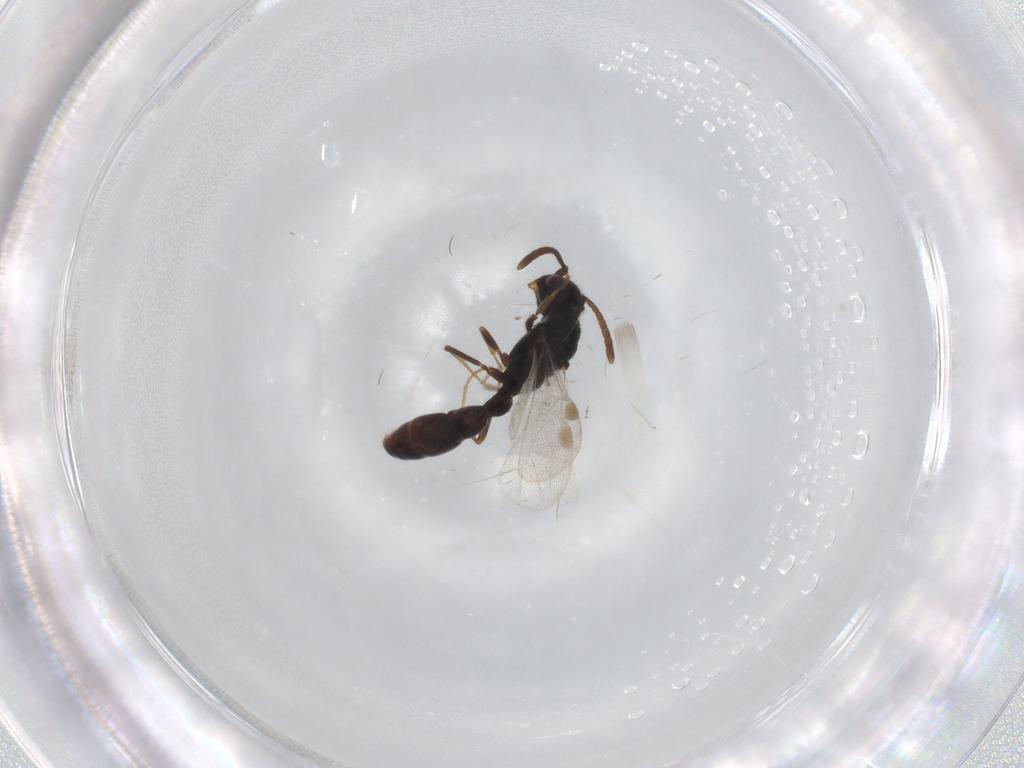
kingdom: Animalia
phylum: Arthropoda
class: Insecta
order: Hymenoptera
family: Formicidae
